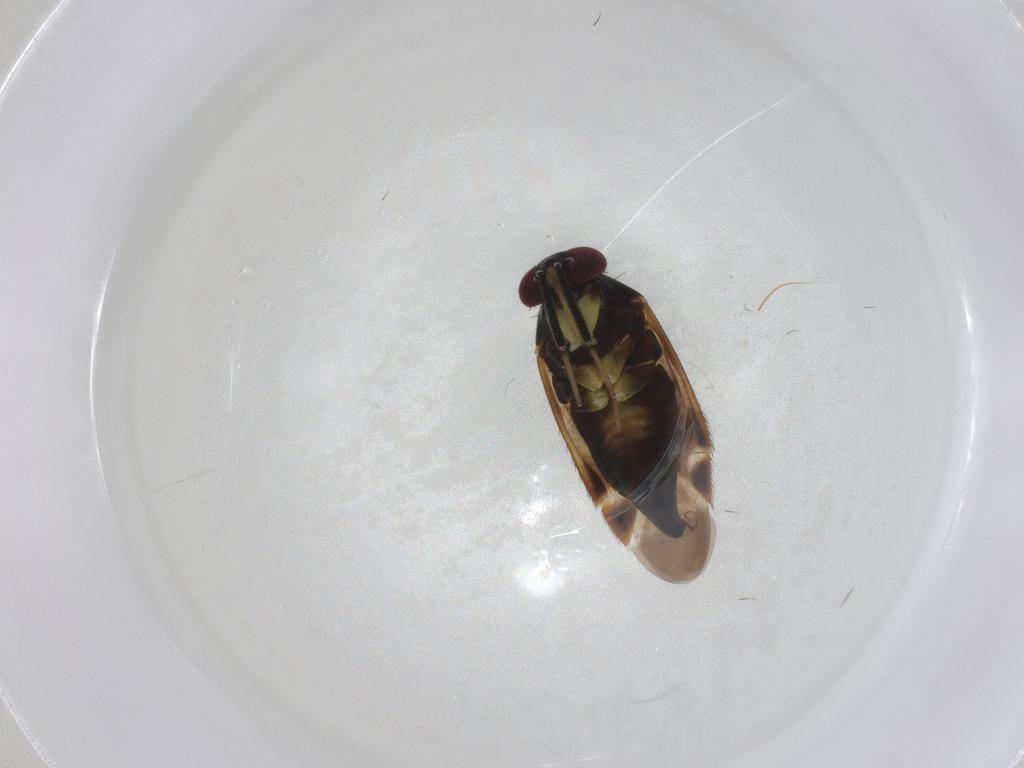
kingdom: Animalia
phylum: Arthropoda
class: Insecta
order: Hemiptera
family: Miridae
